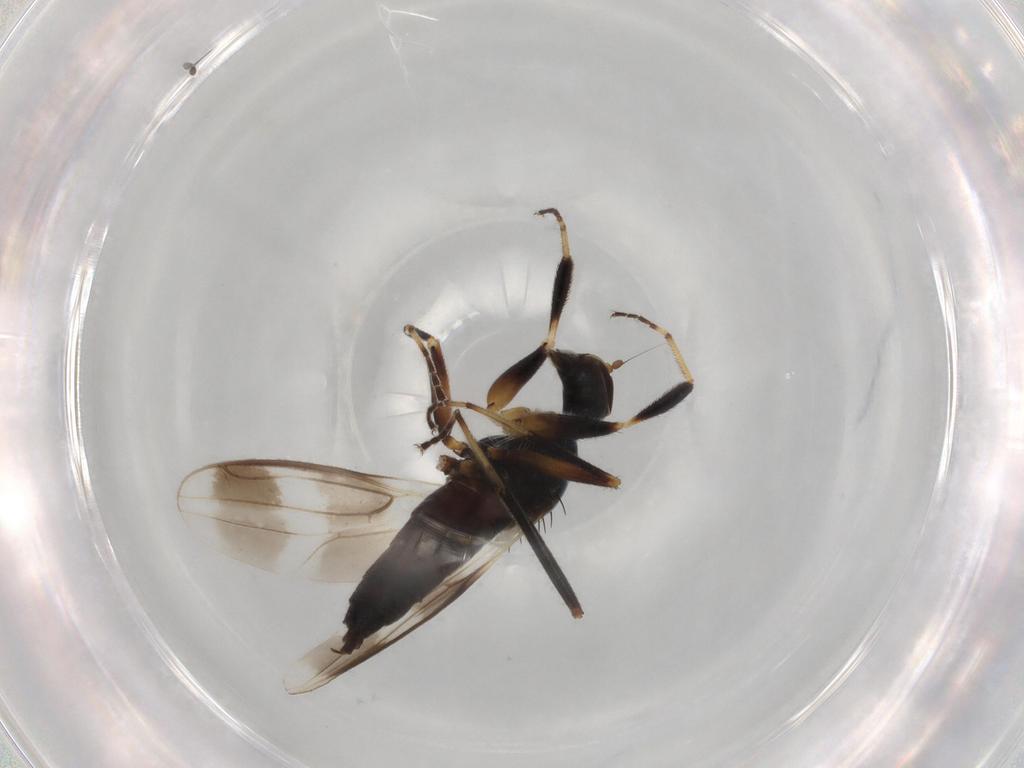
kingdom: Animalia
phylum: Arthropoda
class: Insecta
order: Diptera
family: Hybotidae
